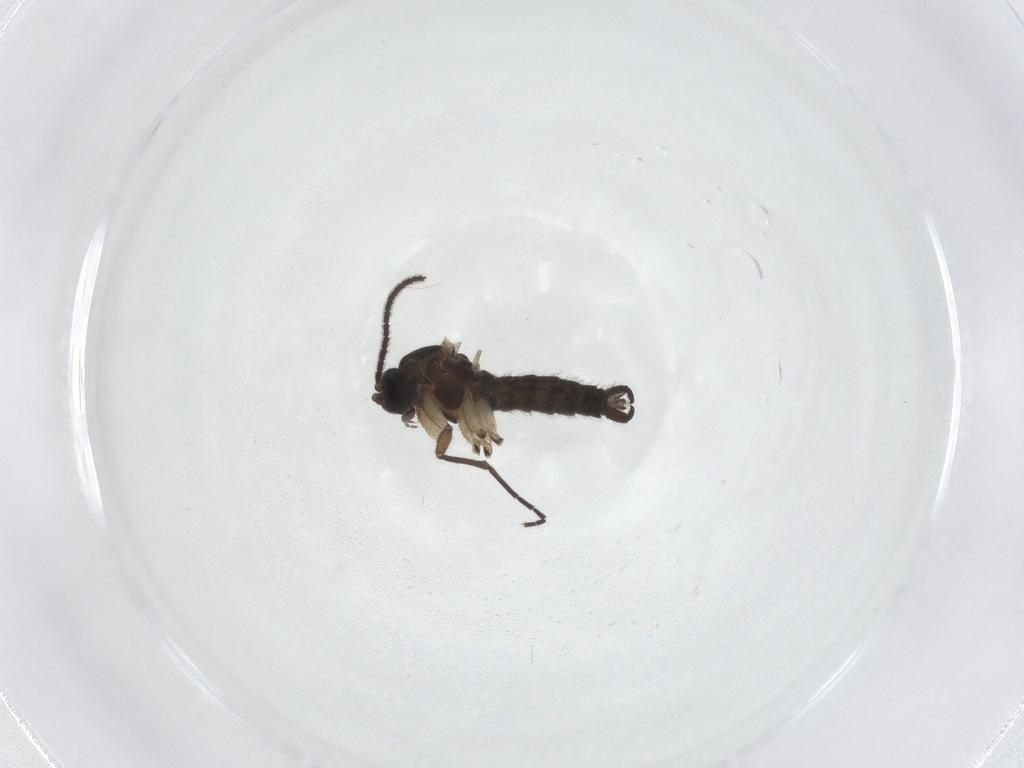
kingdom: Animalia
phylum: Arthropoda
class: Insecta
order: Diptera
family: Sciaridae
